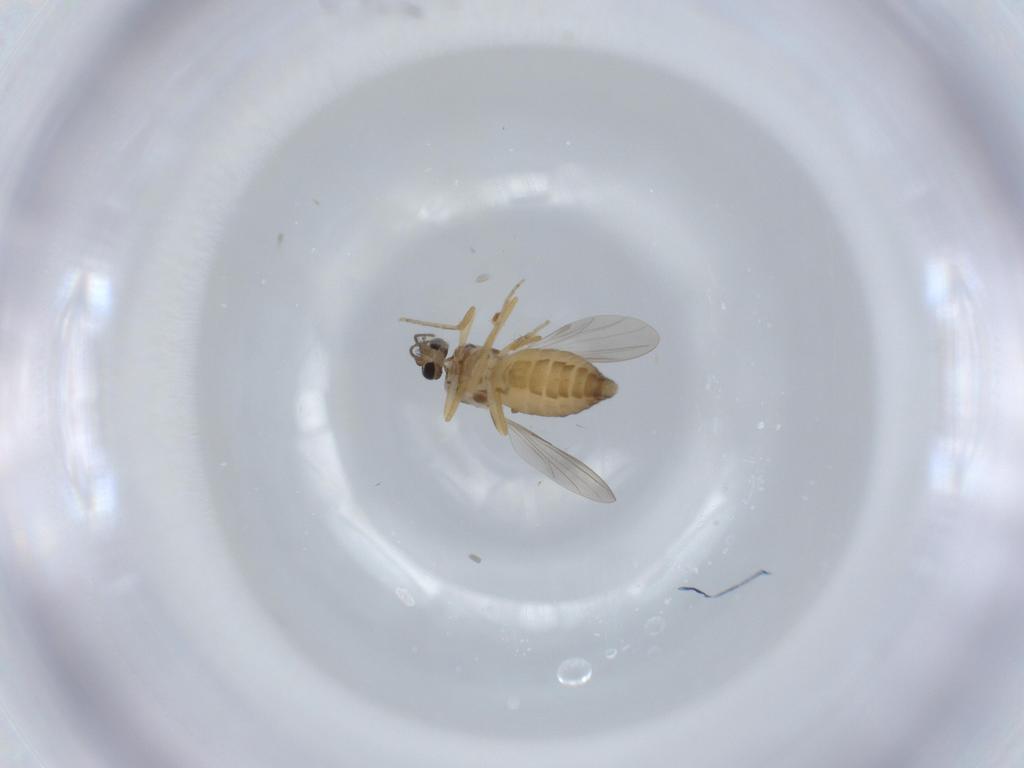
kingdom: Animalia
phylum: Arthropoda
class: Insecta
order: Diptera
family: Ceratopogonidae
